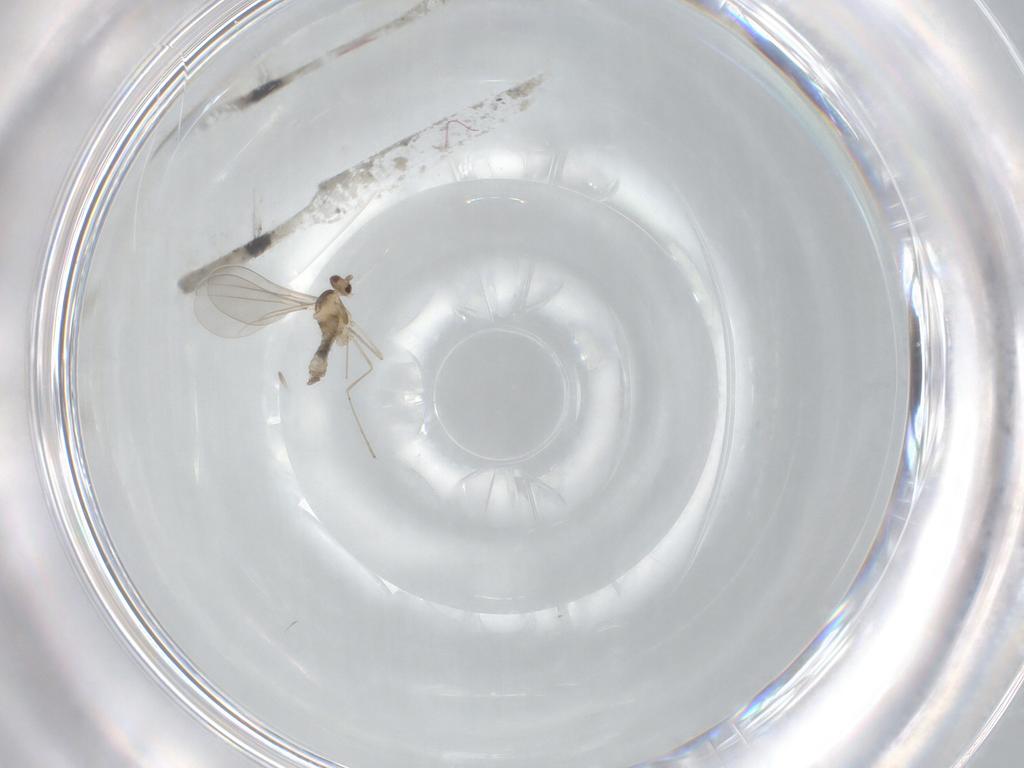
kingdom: Animalia
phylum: Arthropoda
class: Insecta
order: Diptera
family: Cecidomyiidae
